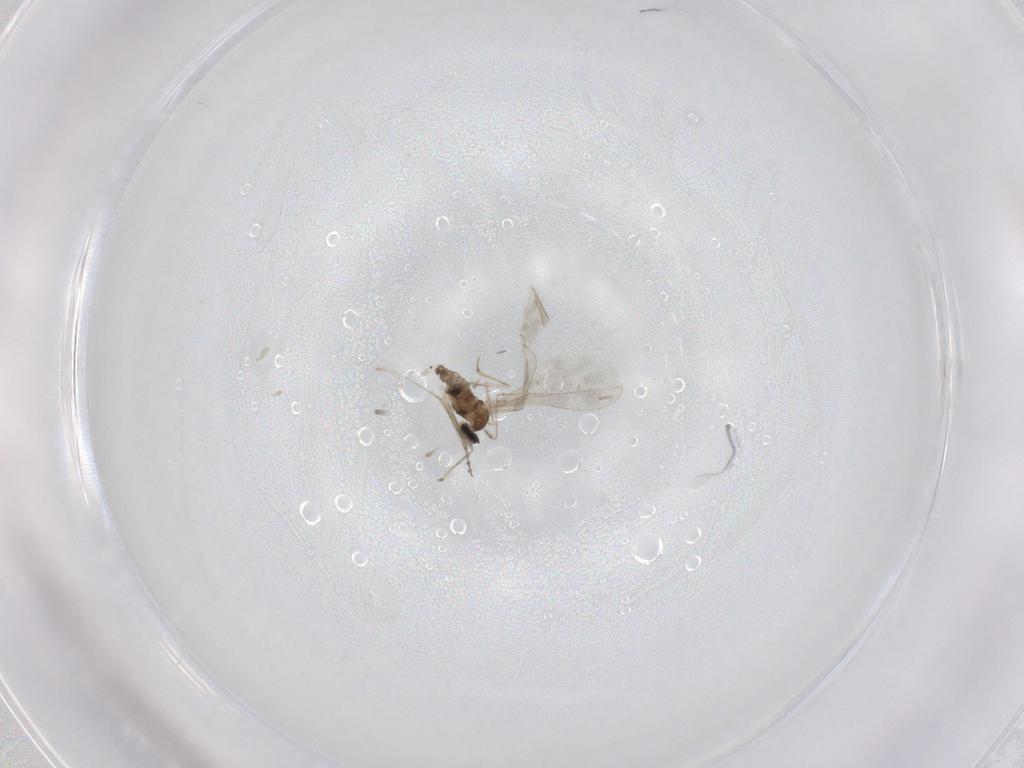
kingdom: Animalia
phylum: Arthropoda
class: Insecta
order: Diptera
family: Cecidomyiidae
